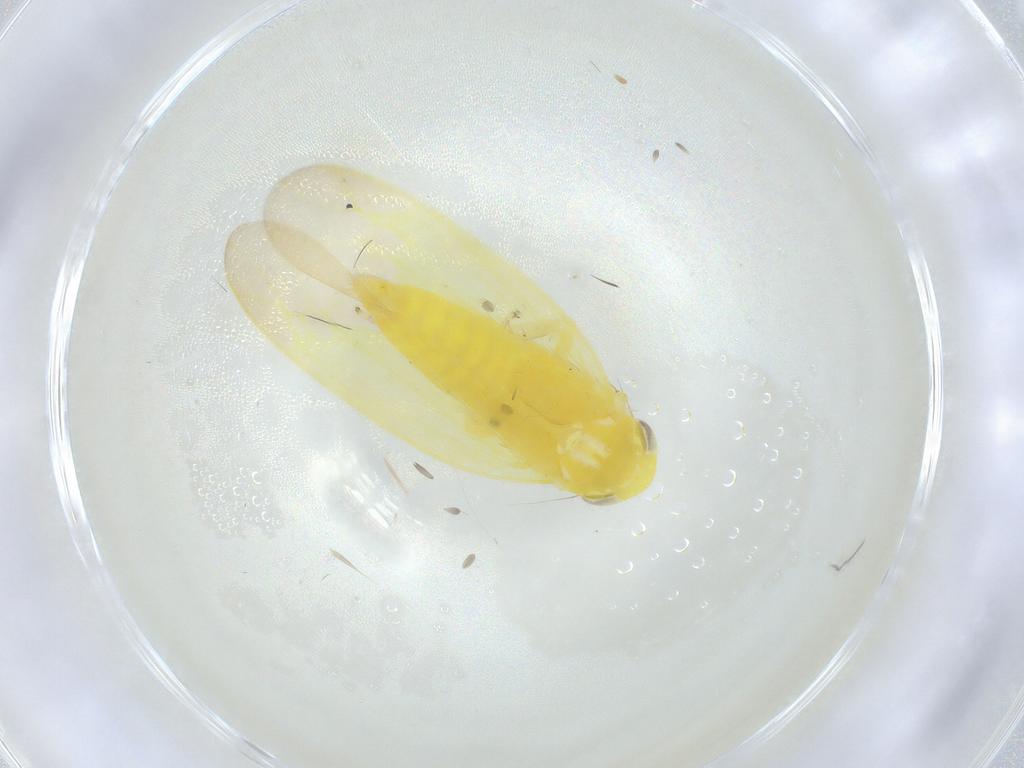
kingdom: Animalia
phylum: Arthropoda
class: Insecta
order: Hemiptera
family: Cicadellidae
